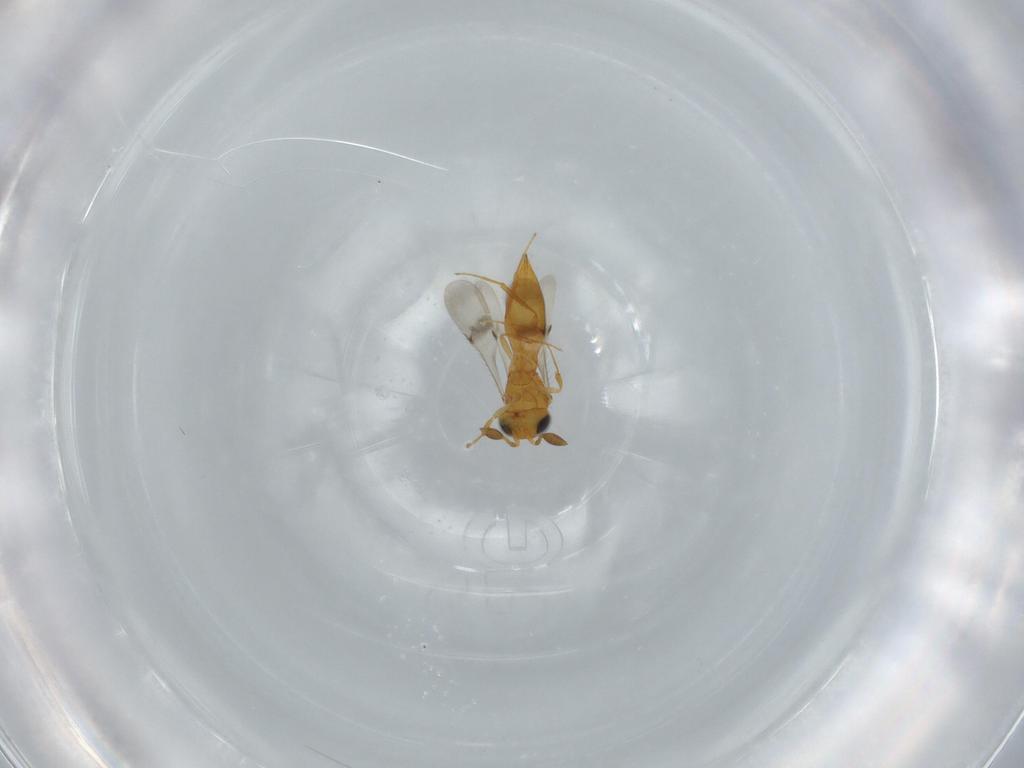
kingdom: Animalia
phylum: Arthropoda
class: Insecta
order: Hymenoptera
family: Scelionidae
